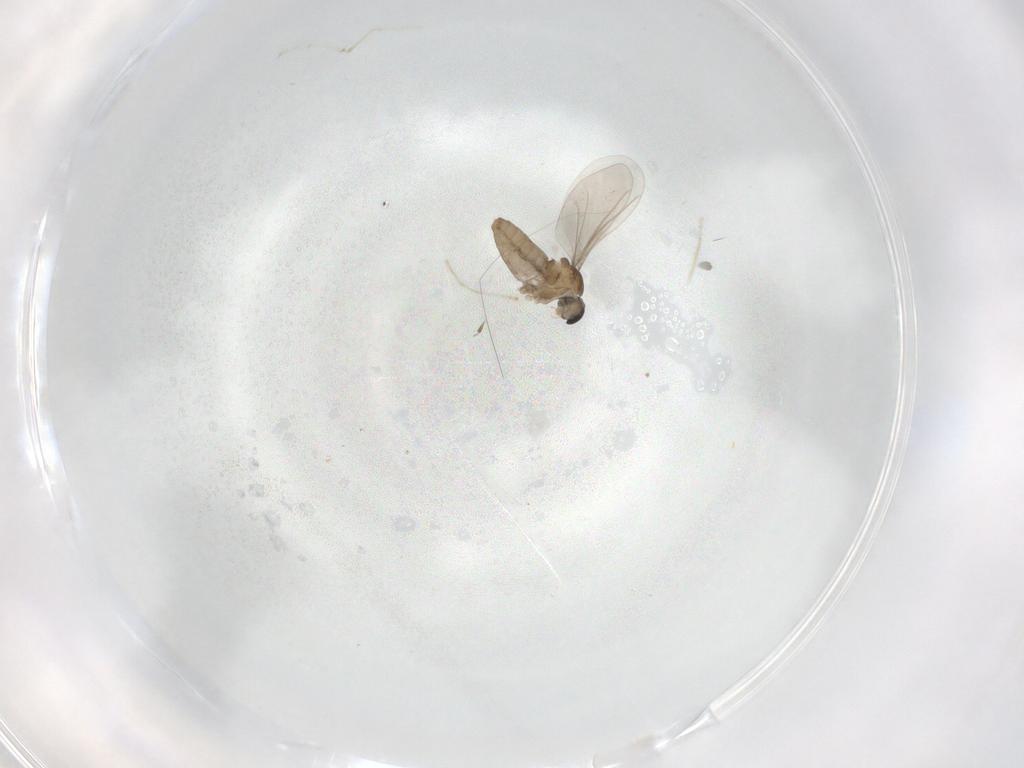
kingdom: Animalia
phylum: Arthropoda
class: Insecta
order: Diptera
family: Cecidomyiidae
